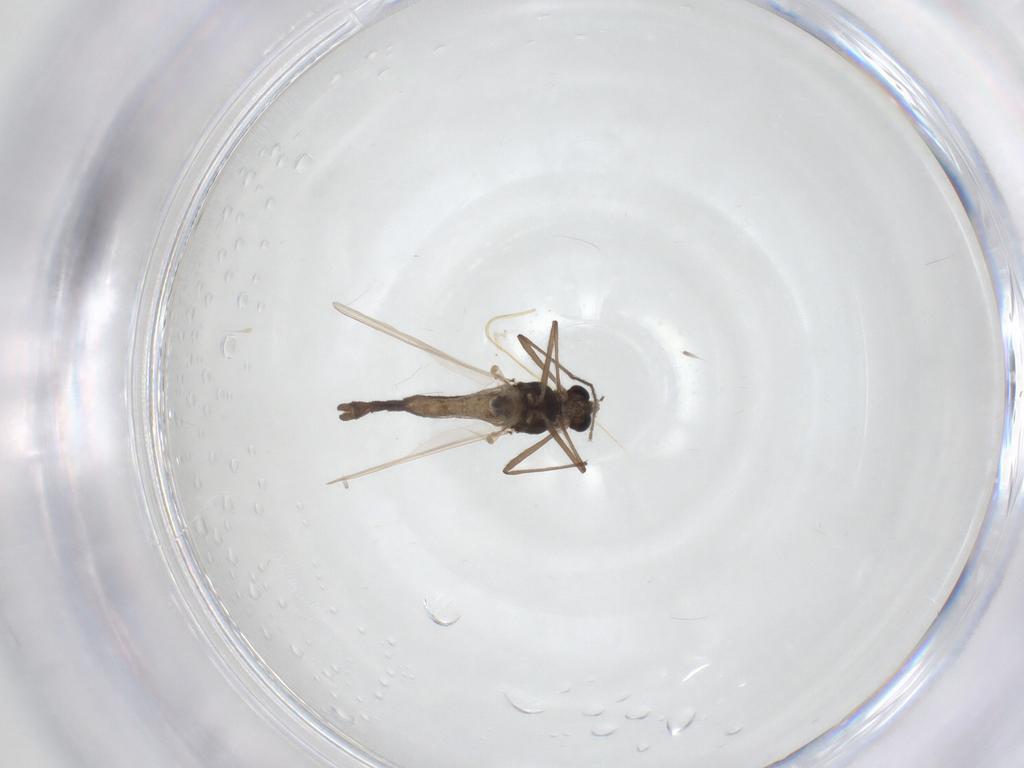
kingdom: Animalia
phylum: Arthropoda
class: Insecta
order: Diptera
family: Chironomidae
